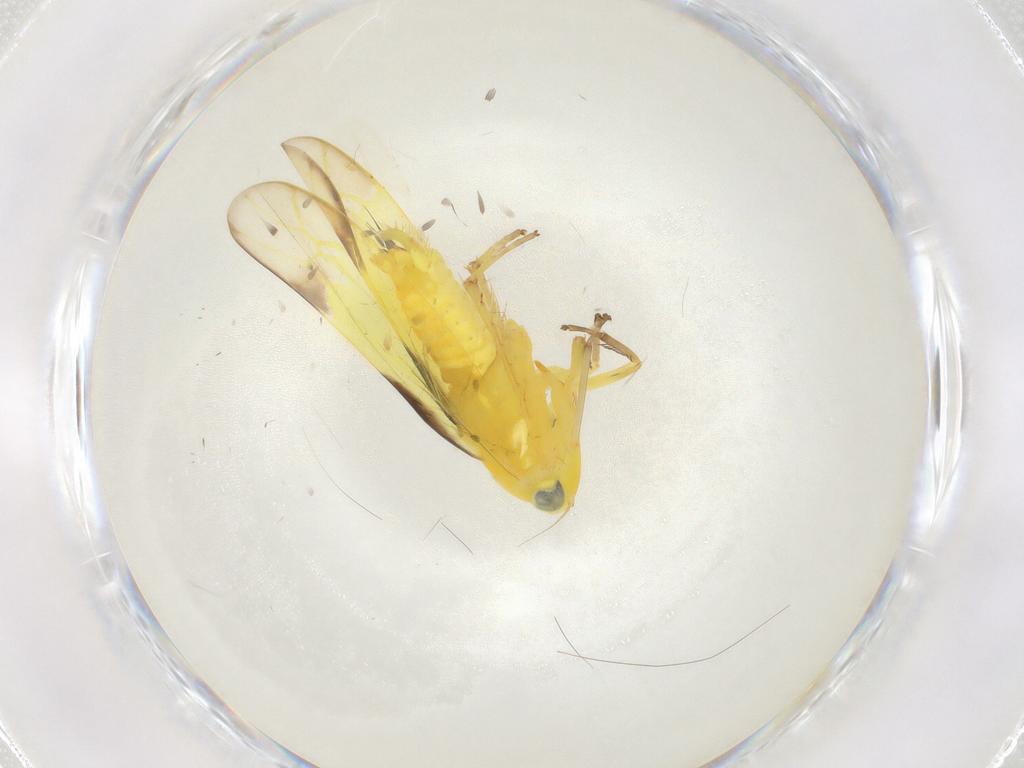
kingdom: Animalia
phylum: Arthropoda
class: Insecta
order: Hemiptera
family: Cicadellidae
